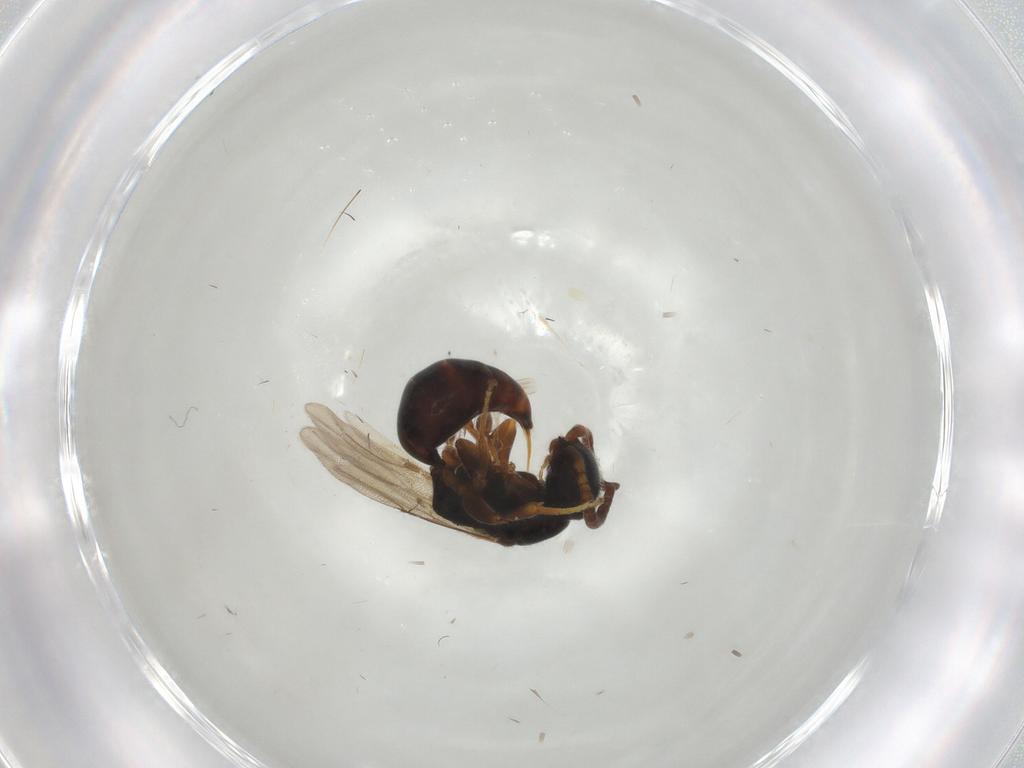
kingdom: Animalia
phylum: Arthropoda
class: Insecta
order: Hymenoptera
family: Bethylidae
